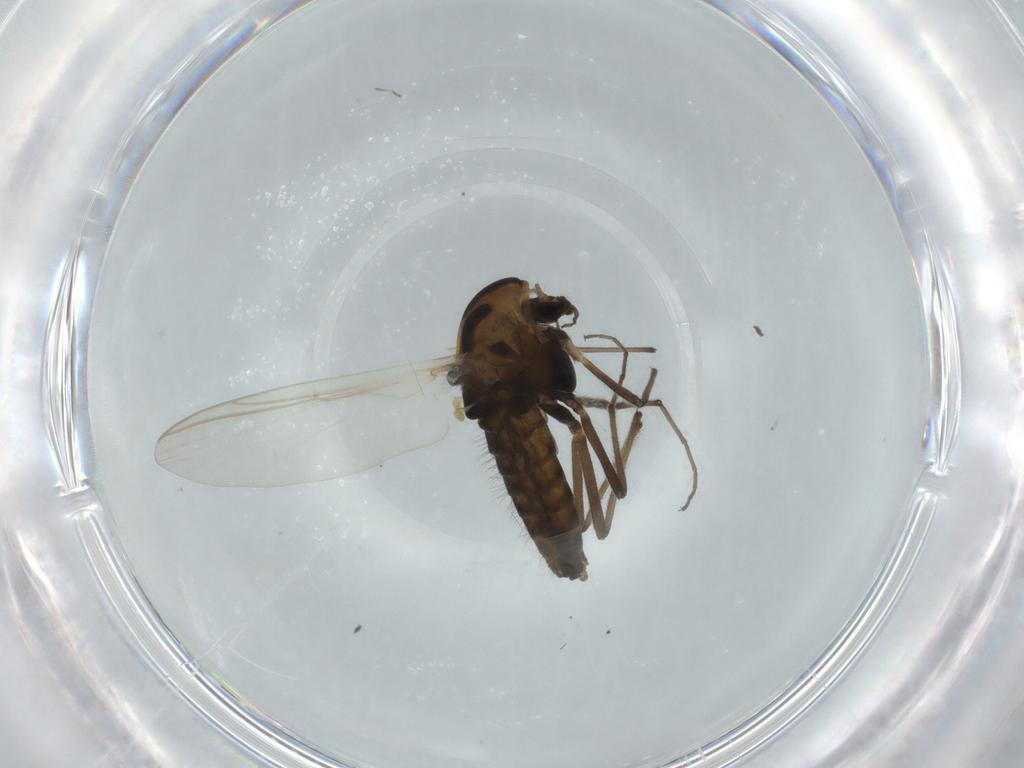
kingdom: Animalia
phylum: Arthropoda
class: Insecta
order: Diptera
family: Chironomidae
